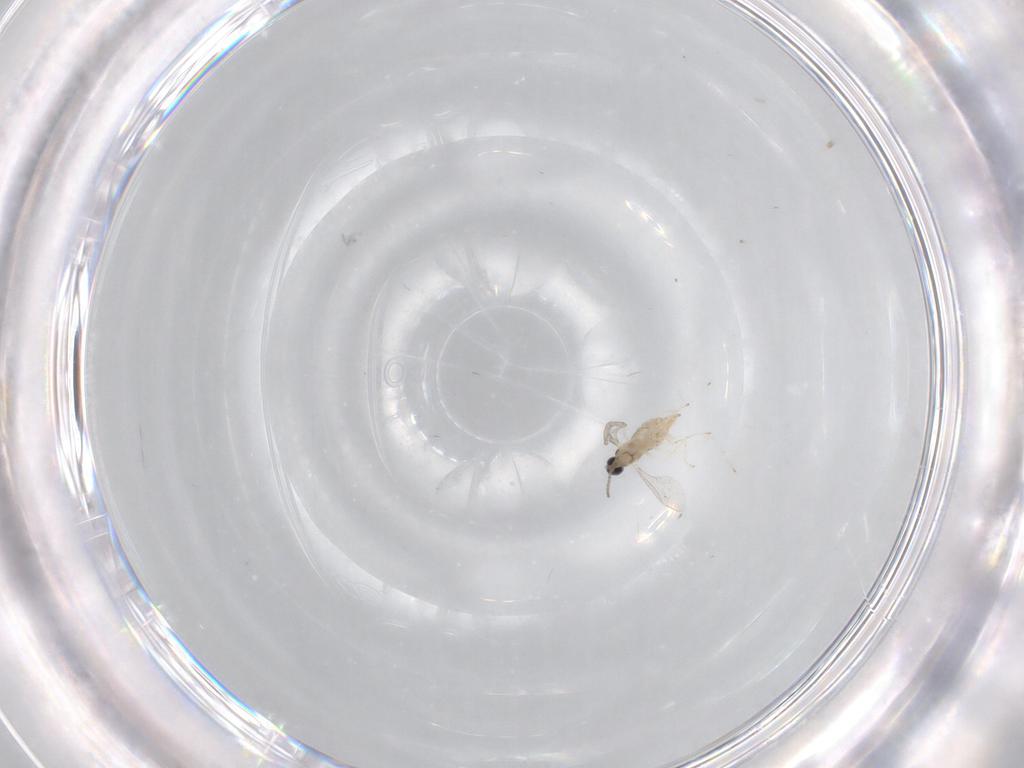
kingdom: Animalia
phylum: Arthropoda
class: Insecta
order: Diptera
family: Cecidomyiidae
